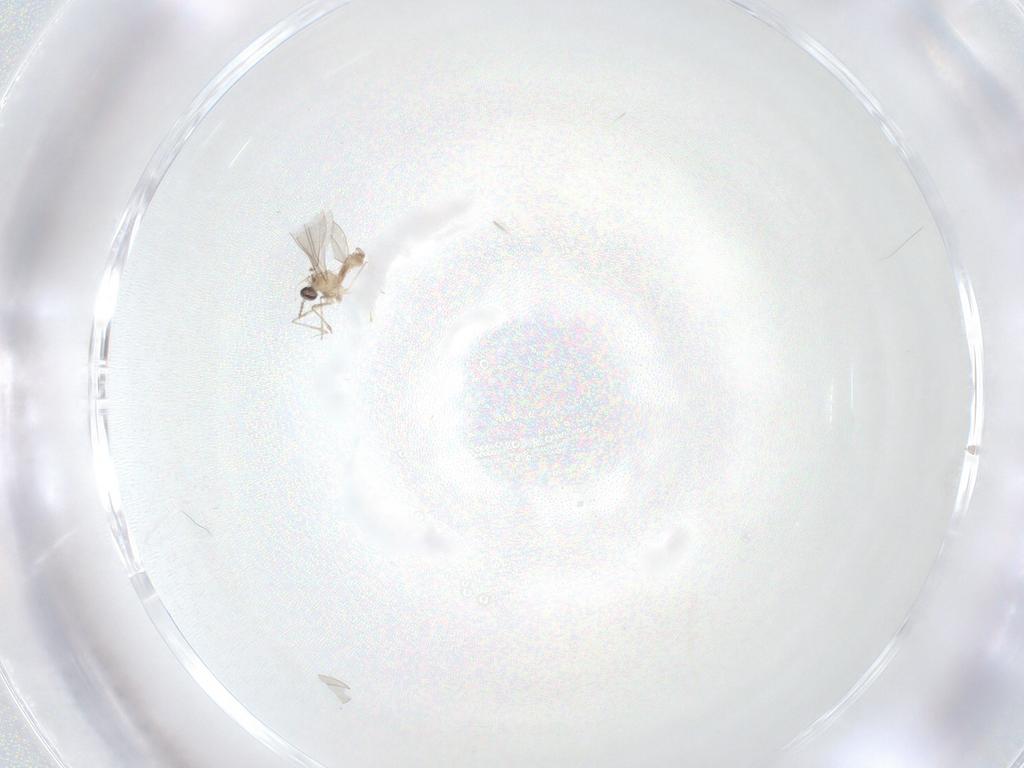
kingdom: Animalia
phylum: Arthropoda
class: Insecta
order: Diptera
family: Cecidomyiidae
